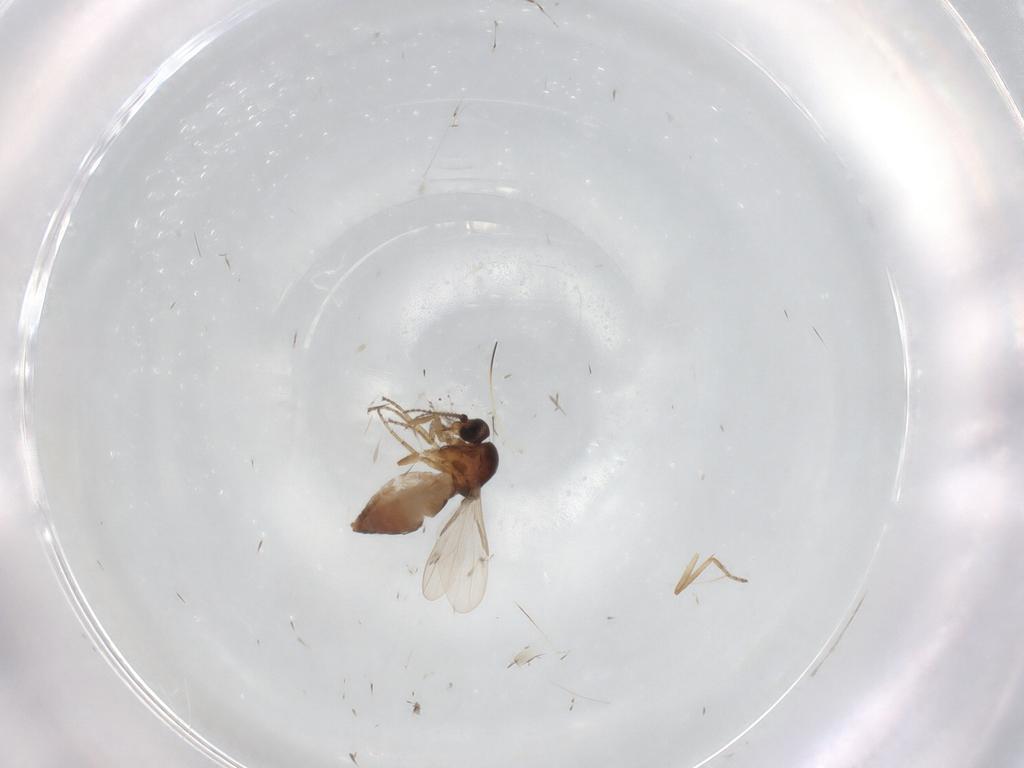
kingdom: Animalia
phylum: Arthropoda
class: Insecta
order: Diptera
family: Ceratopogonidae
